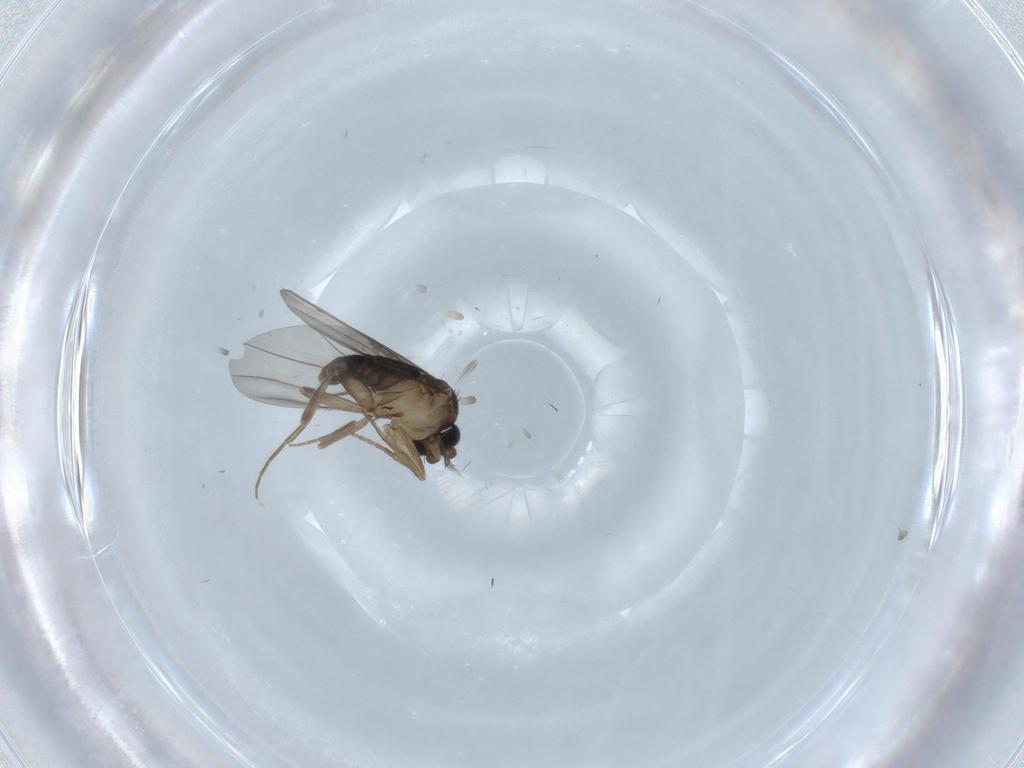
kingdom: Animalia
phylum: Arthropoda
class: Insecta
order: Diptera
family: Phoridae
